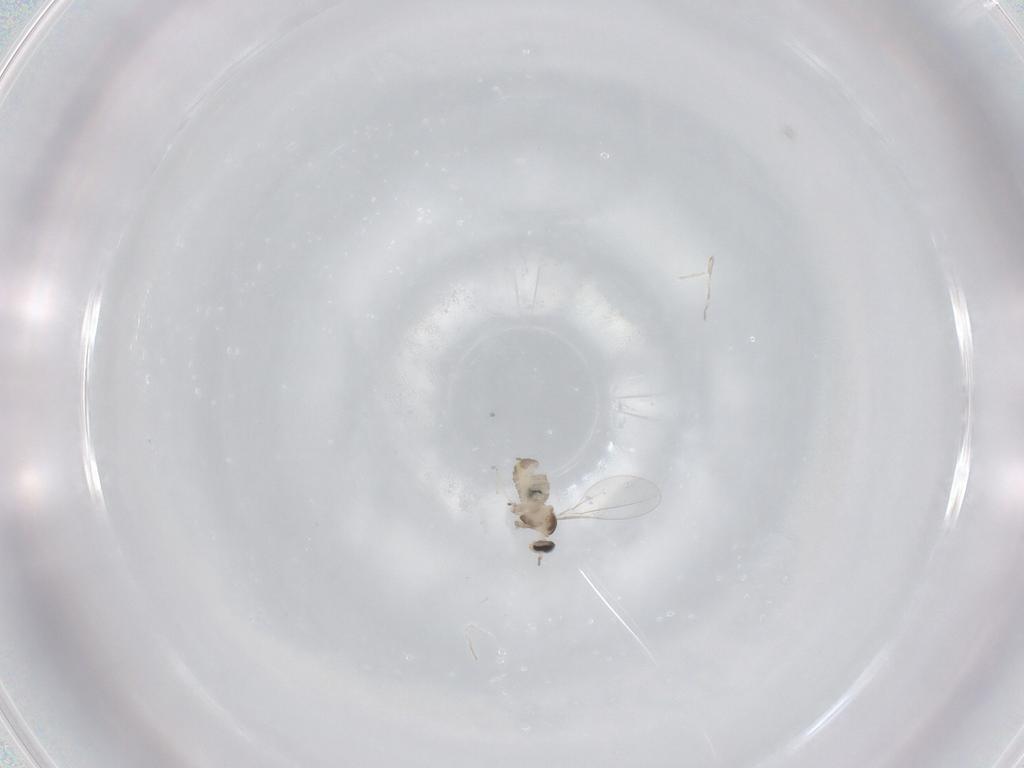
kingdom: Animalia
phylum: Arthropoda
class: Insecta
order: Diptera
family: Cecidomyiidae
